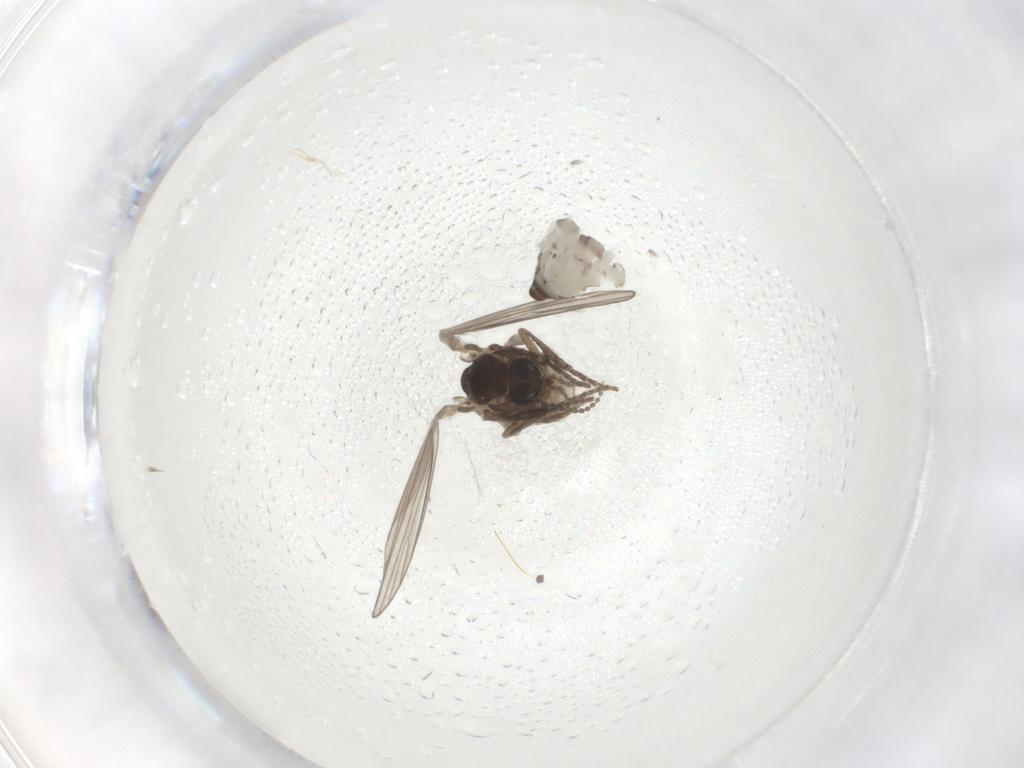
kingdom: Animalia
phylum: Arthropoda
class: Insecta
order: Diptera
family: Psychodidae
